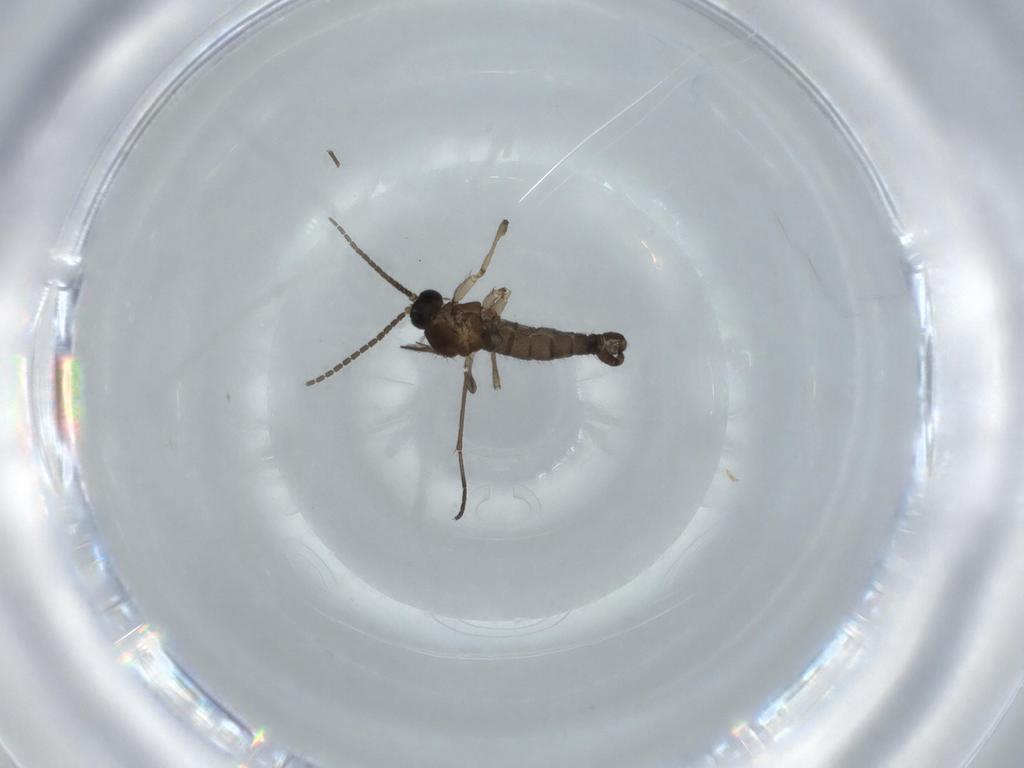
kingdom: Animalia
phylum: Arthropoda
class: Insecta
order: Diptera
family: Sciaridae
